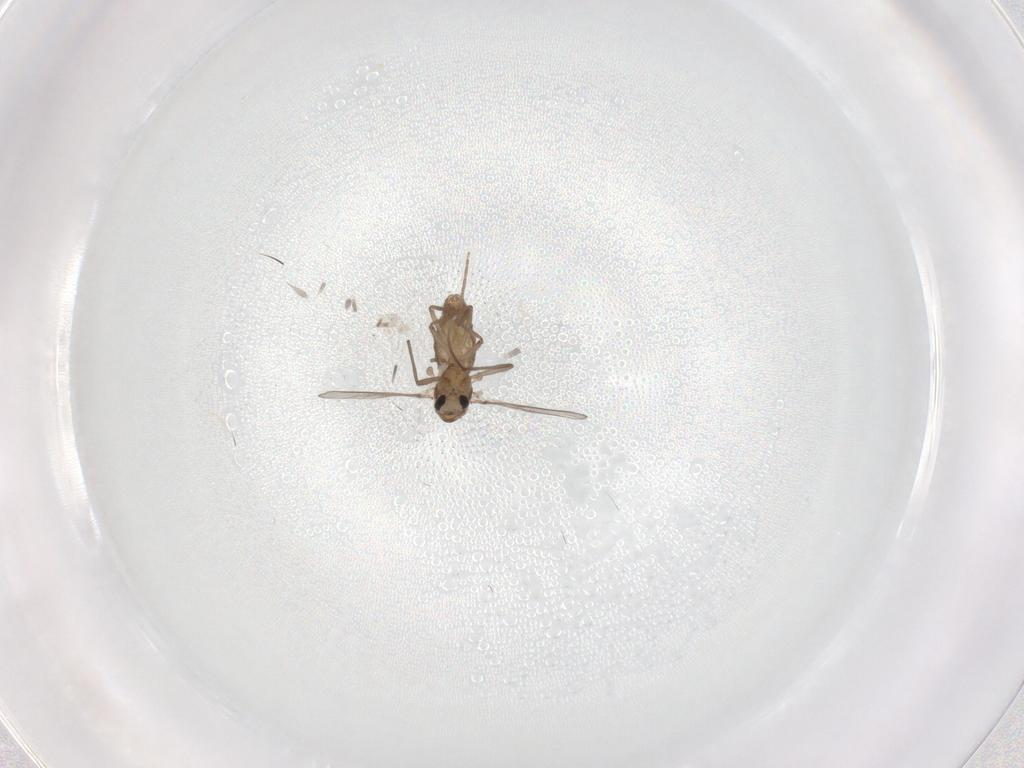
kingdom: Animalia
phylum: Arthropoda
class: Insecta
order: Diptera
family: Chironomidae
